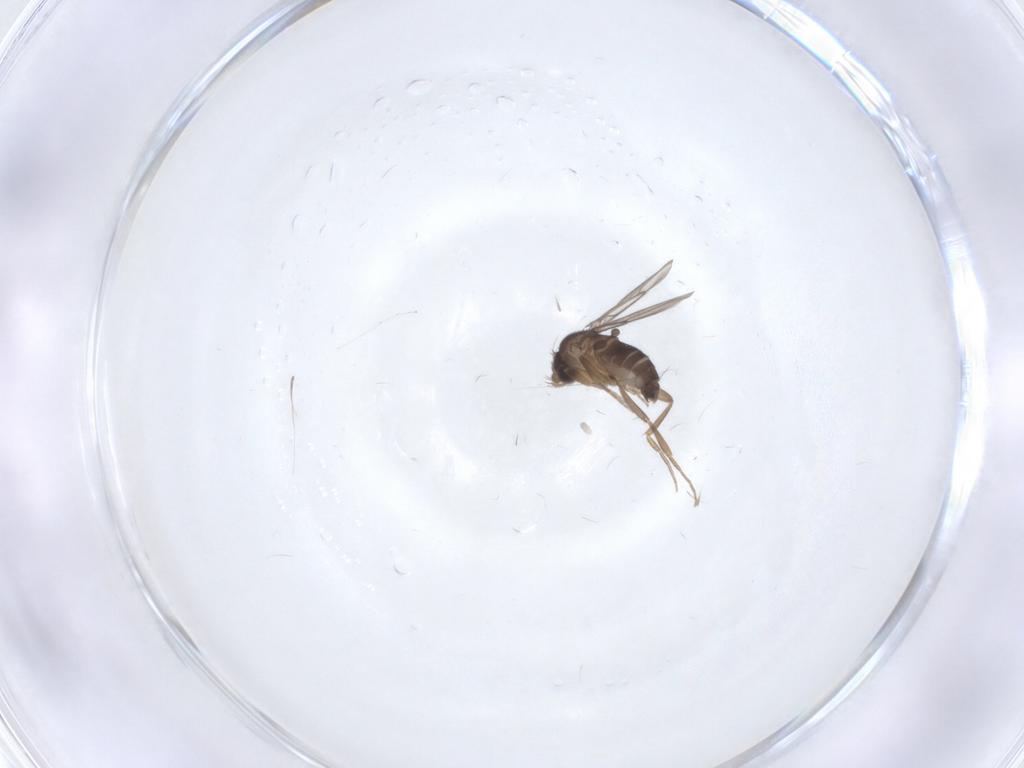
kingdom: Animalia
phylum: Arthropoda
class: Insecta
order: Diptera
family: Phoridae
